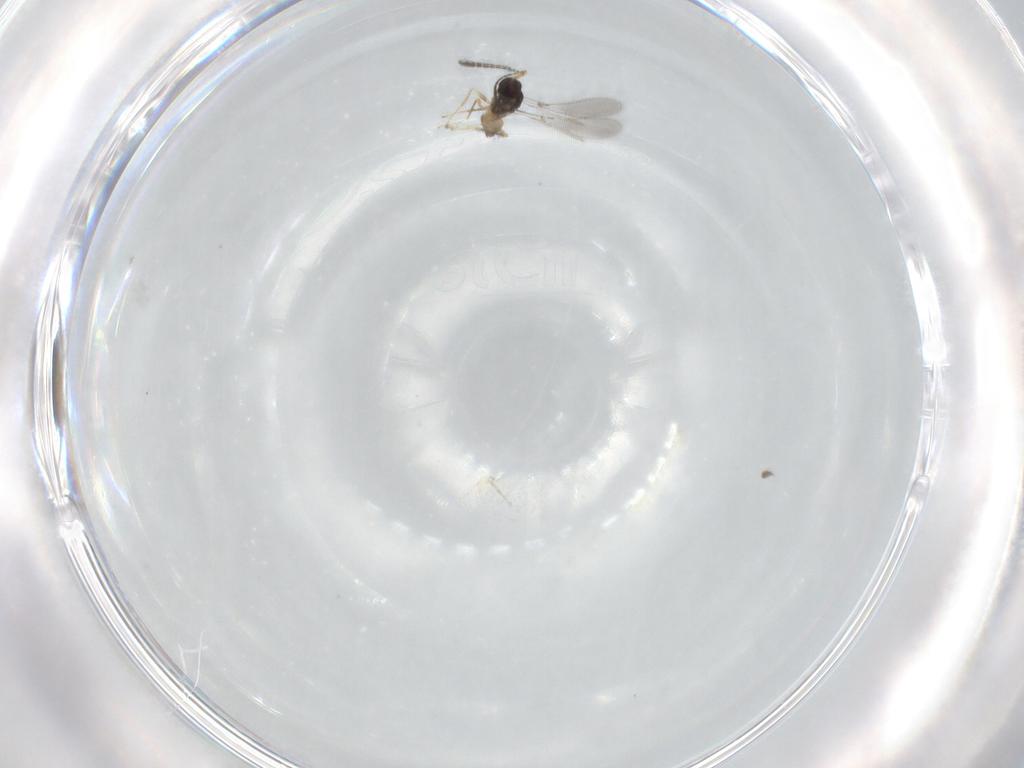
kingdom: Animalia
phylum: Arthropoda
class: Insecta
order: Hymenoptera
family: Mymaridae
